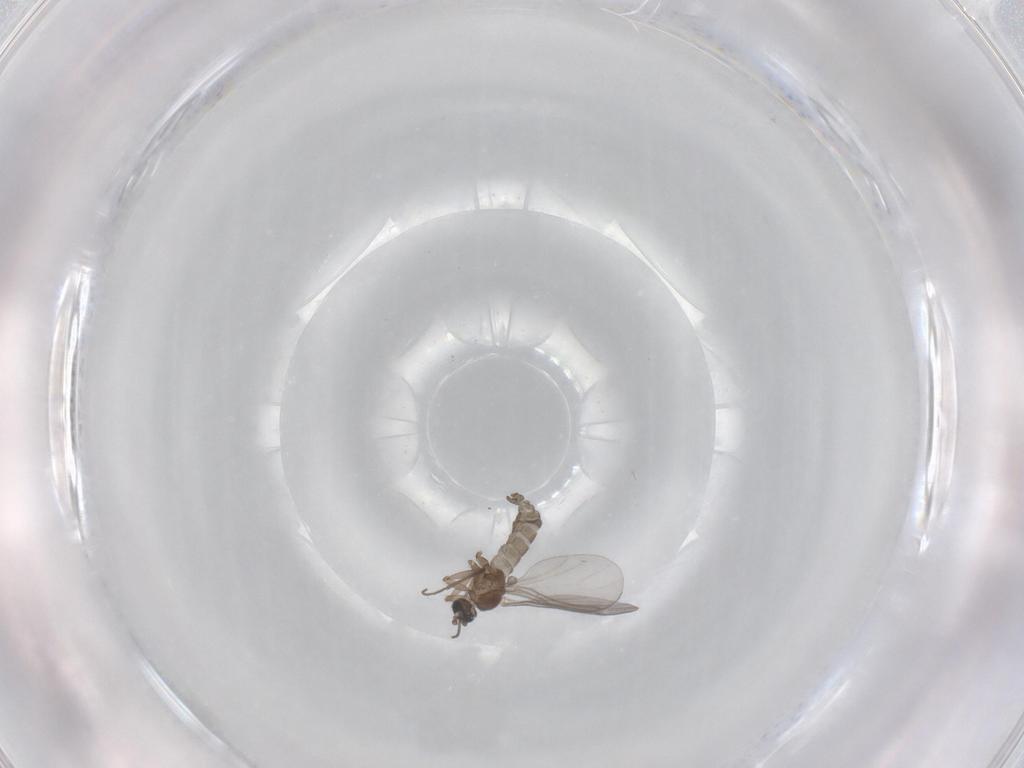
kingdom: Animalia
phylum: Arthropoda
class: Insecta
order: Diptera
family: Sciaridae
